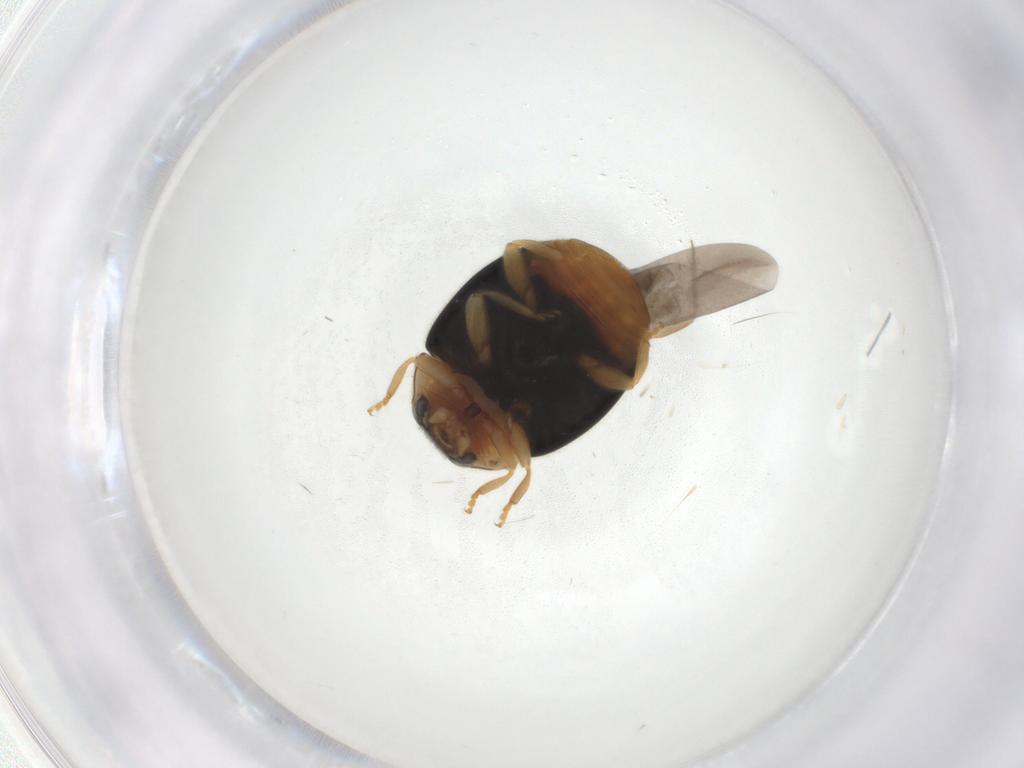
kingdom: Animalia
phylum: Arthropoda
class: Insecta
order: Coleoptera
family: Coccinellidae
